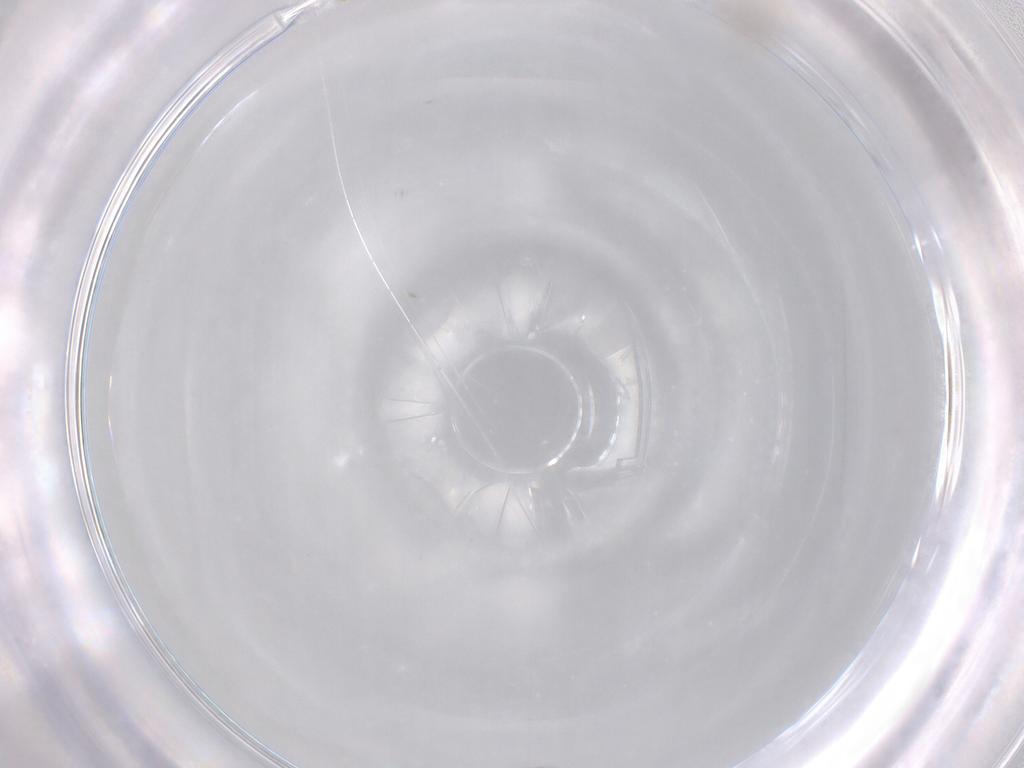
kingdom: Animalia
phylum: Arthropoda
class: Insecta
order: Diptera
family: Cecidomyiidae
